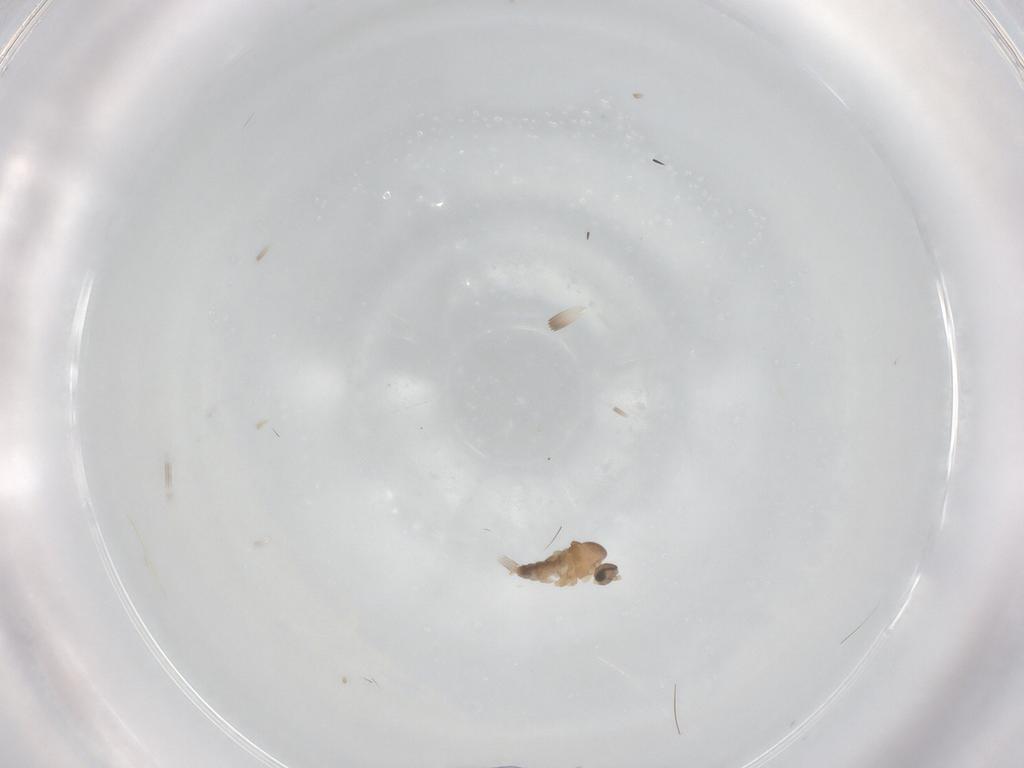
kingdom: Animalia
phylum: Arthropoda
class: Insecta
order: Diptera
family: Cecidomyiidae
